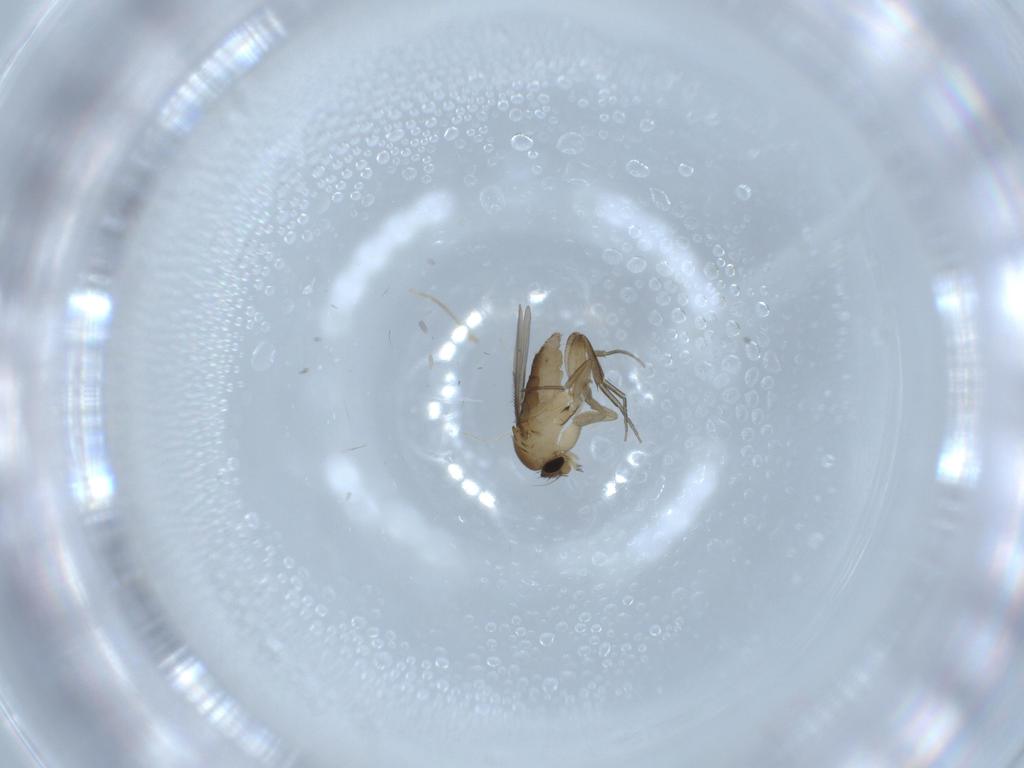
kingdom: Animalia
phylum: Arthropoda
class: Insecta
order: Diptera
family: Phoridae
